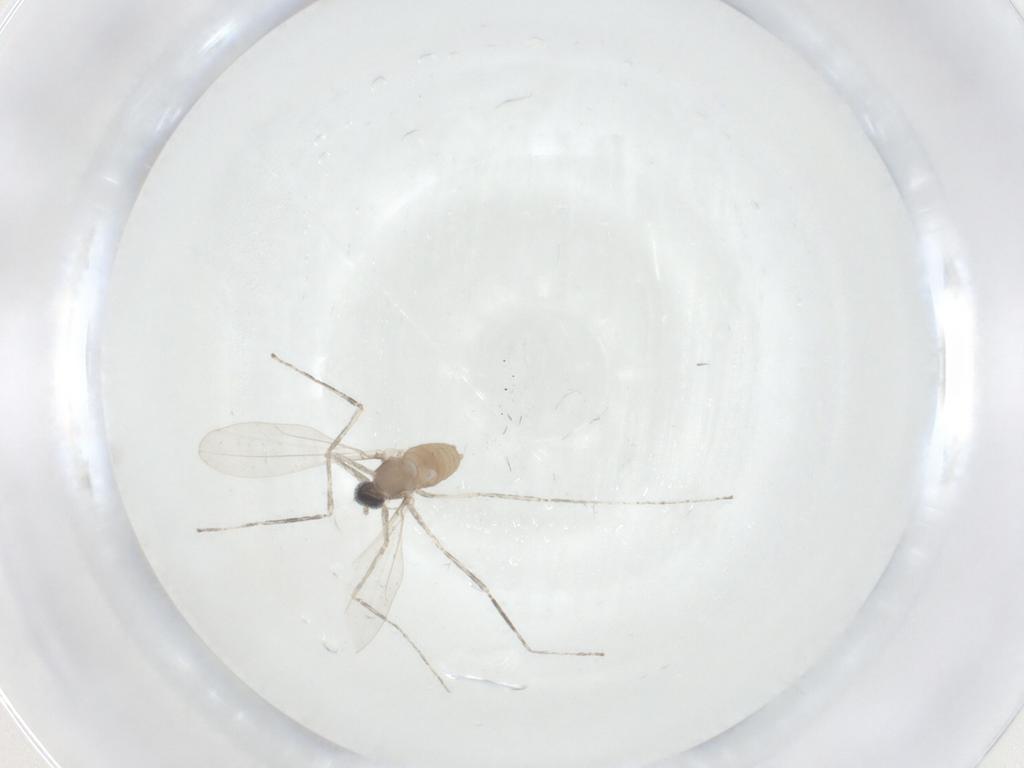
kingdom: Animalia
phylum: Arthropoda
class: Insecta
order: Diptera
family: Cecidomyiidae
